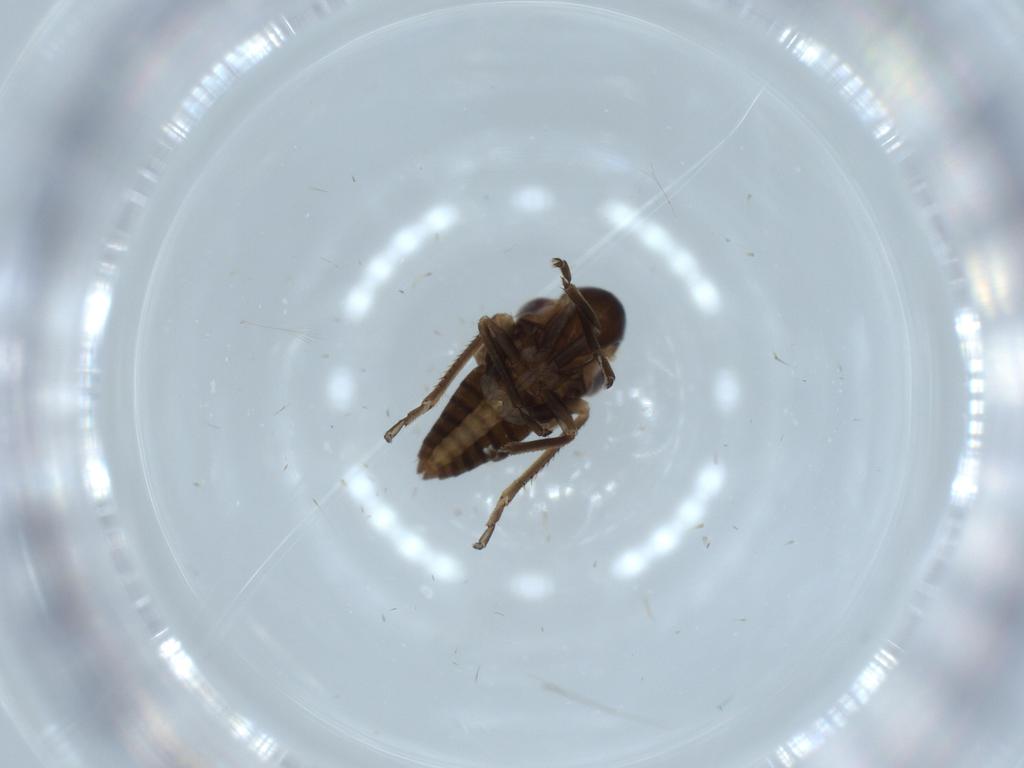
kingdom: Animalia
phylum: Arthropoda
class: Insecta
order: Hemiptera
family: Cicadellidae
